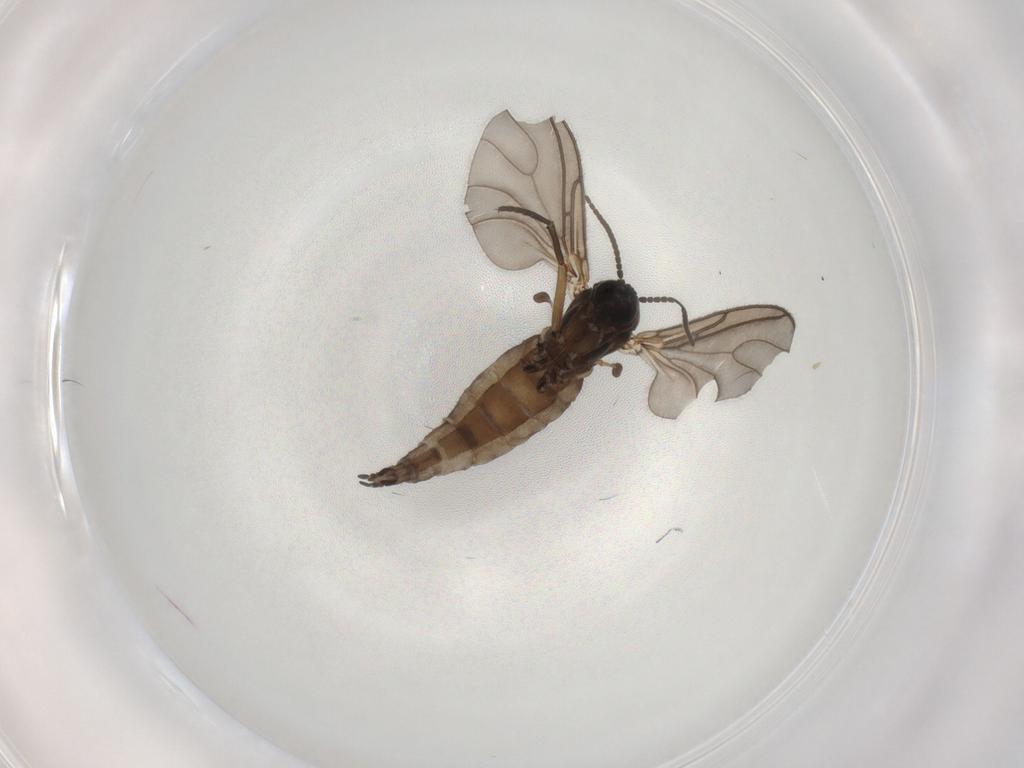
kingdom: Animalia
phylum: Arthropoda
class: Insecta
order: Diptera
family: Sciaridae
